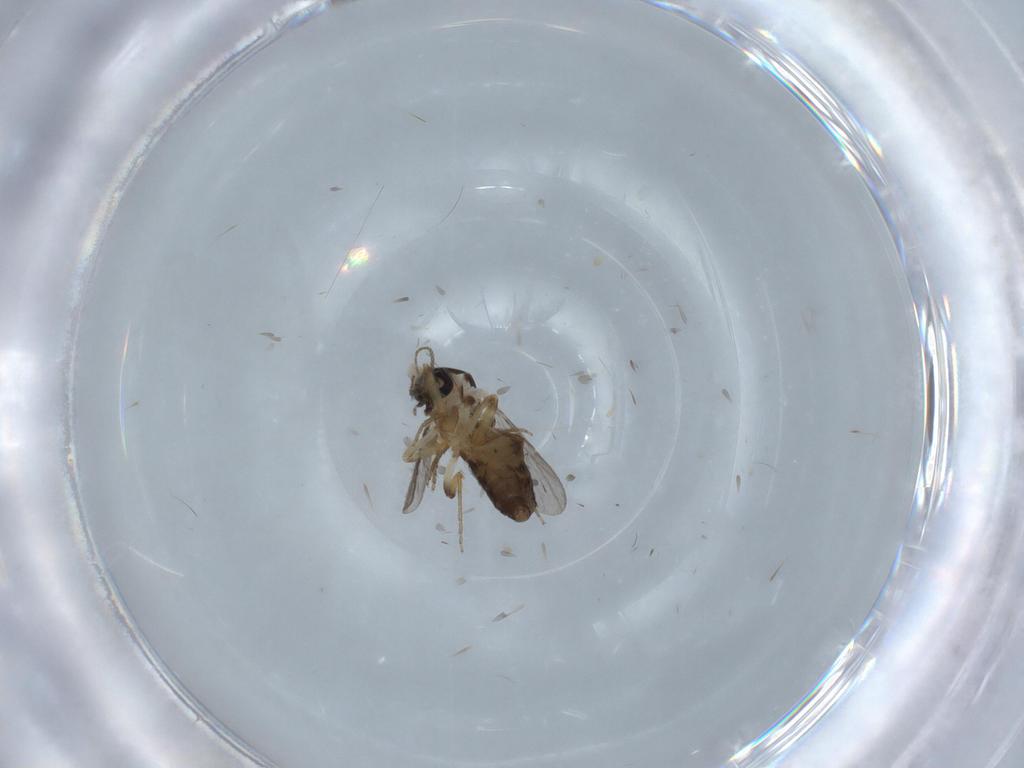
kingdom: Animalia
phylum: Arthropoda
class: Insecta
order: Diptera
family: Ceratopogonidae
